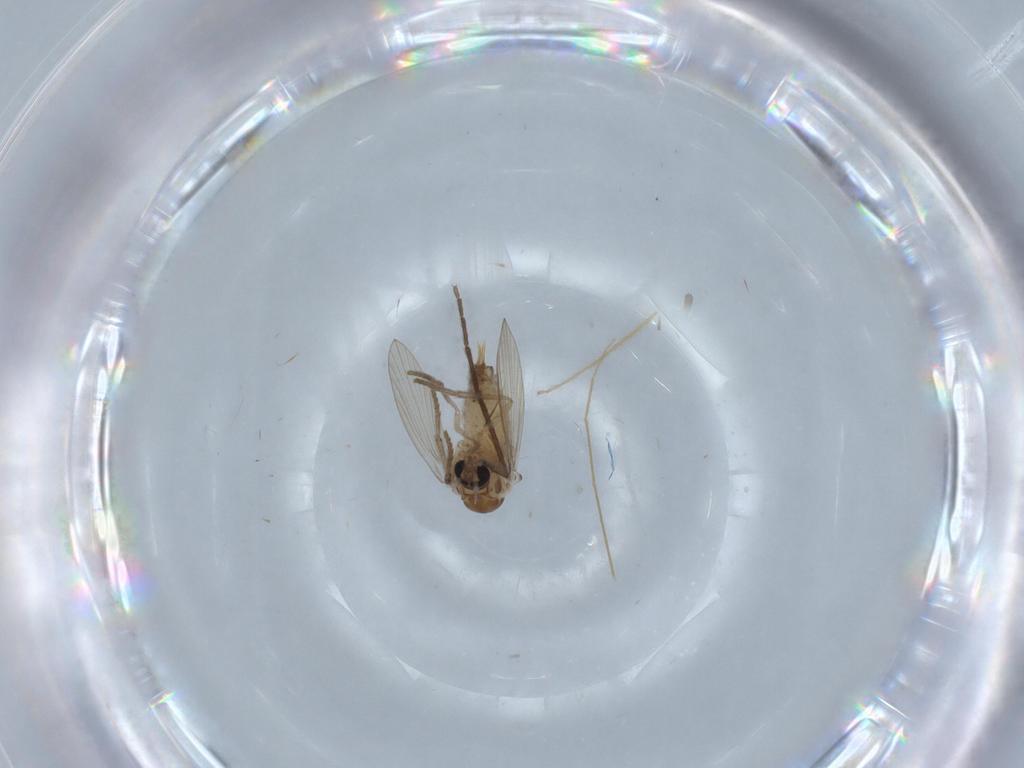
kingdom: Animalia
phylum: Arthropoda
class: Insecta
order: Diptera
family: Psychodidae
